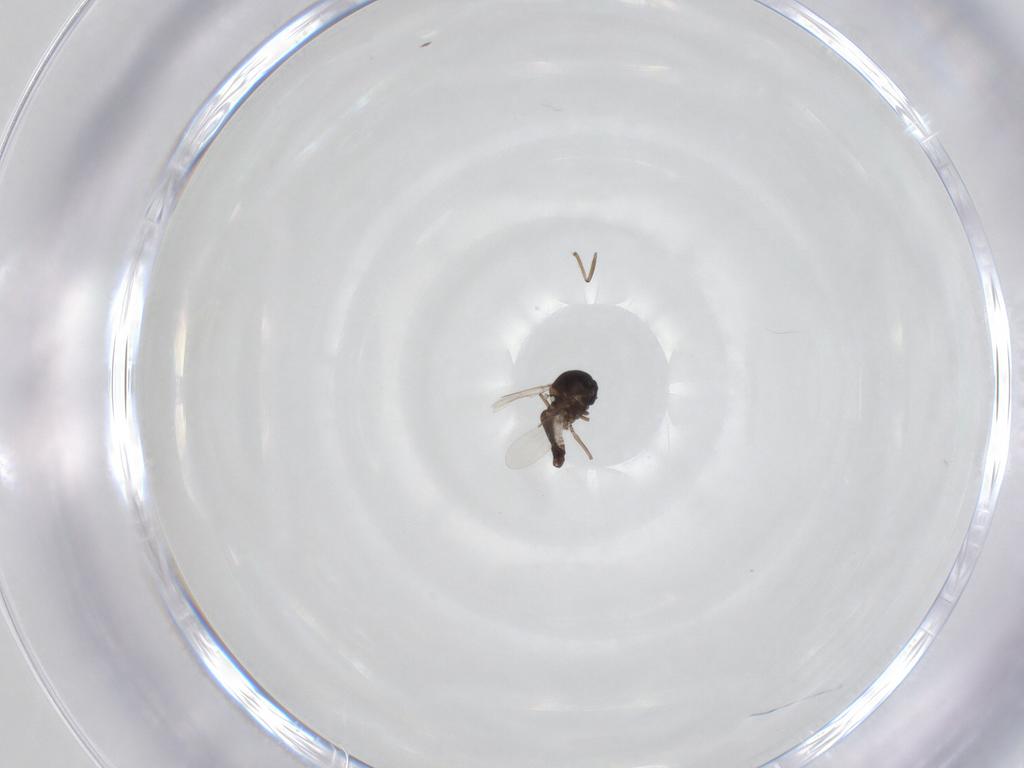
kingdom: Animalia
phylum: Arthropoda
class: Insecta
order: Diptera
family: Ceratopogonidae
